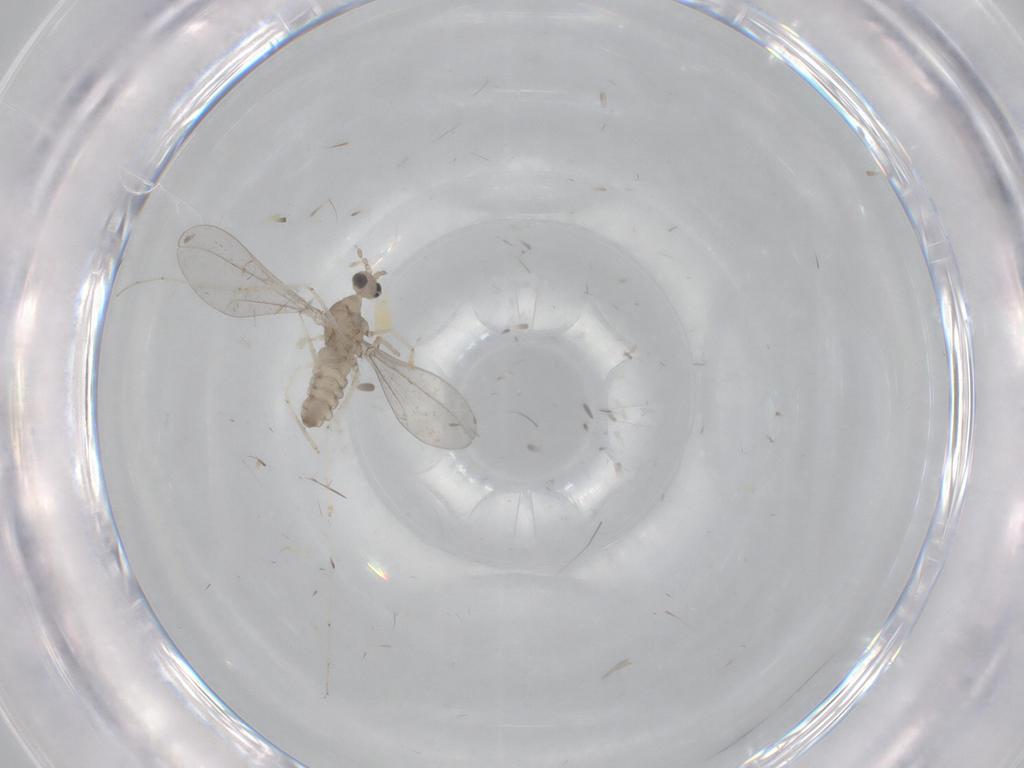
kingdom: Animalia
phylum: Arthropoda
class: Insecta
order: Diptera
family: Cecidomyiidae
